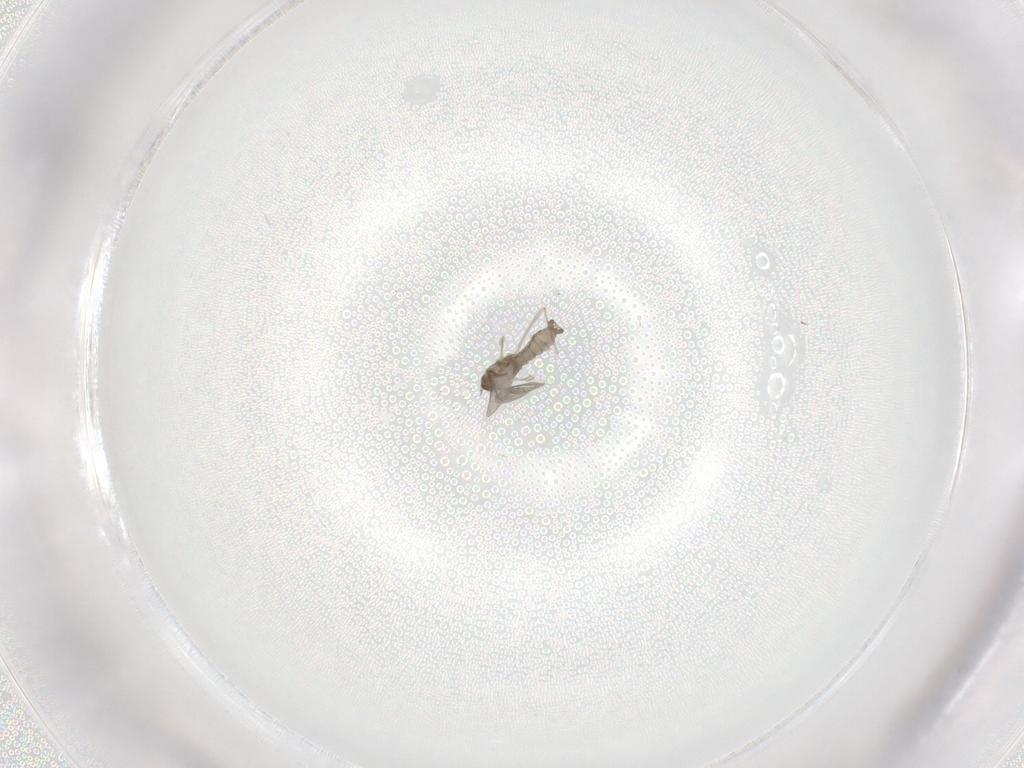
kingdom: Animalia
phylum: Arthropoda
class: Insecta
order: Diptera
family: Cecidomyiidae
